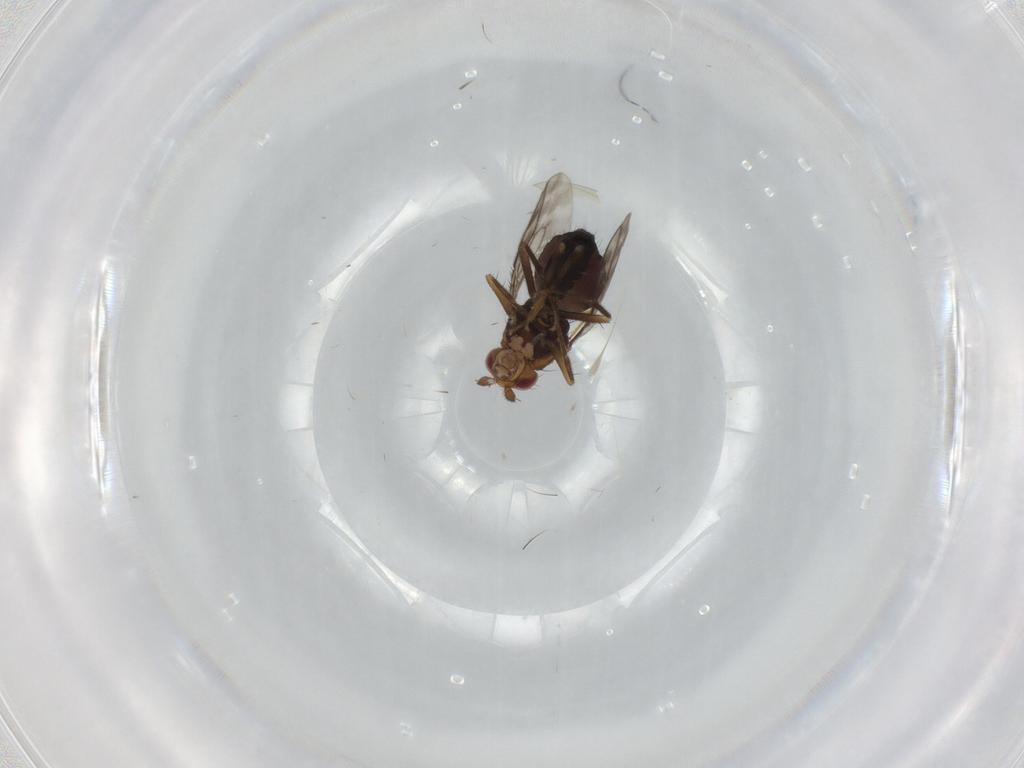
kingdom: Animalia
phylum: Arthropoda
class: Insecta
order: Diptera
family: Sphaeroceridae
